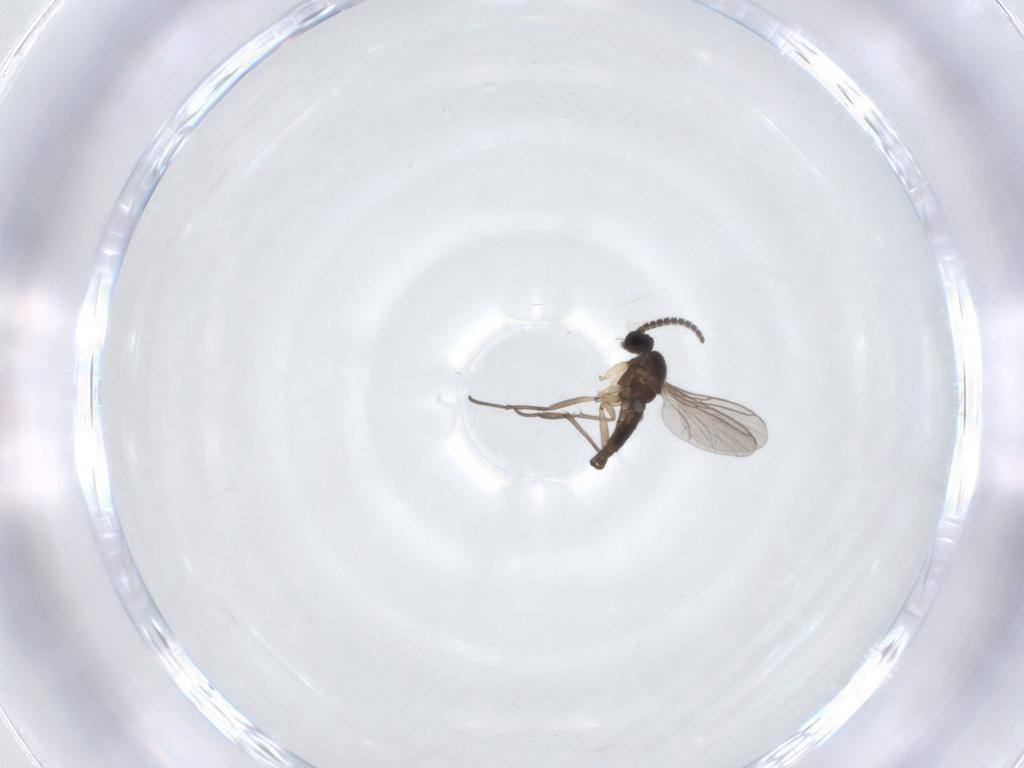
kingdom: Animalia
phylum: Arthropoda
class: Insecta
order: Diptera
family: Sciaridae
